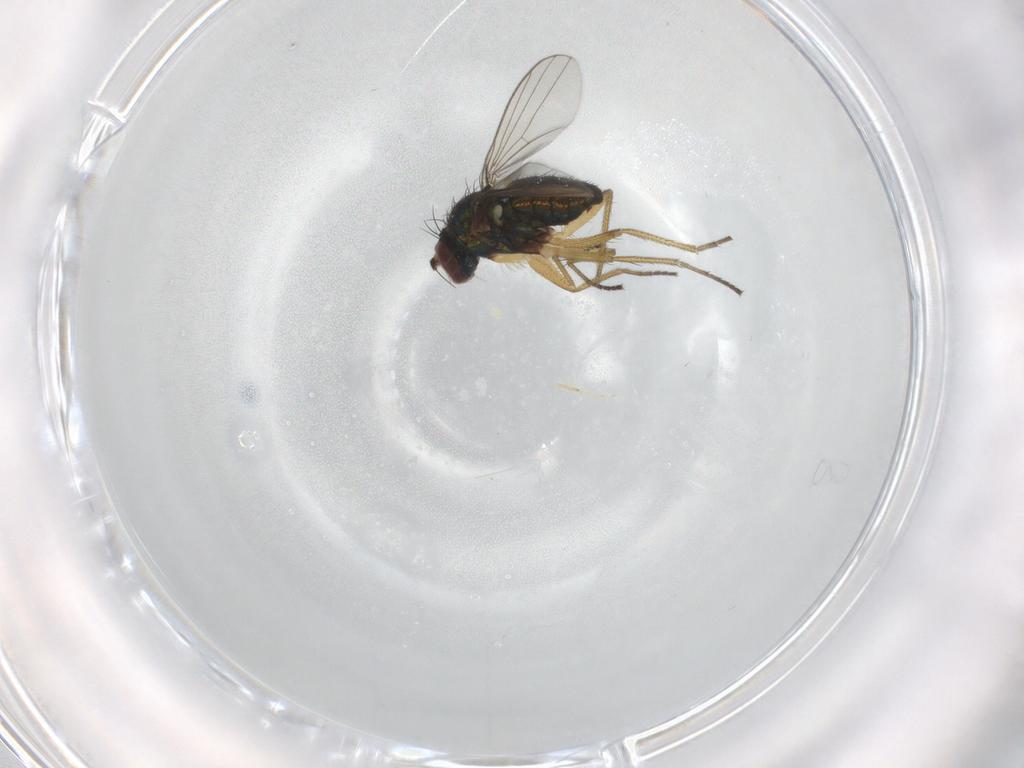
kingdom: Animalia
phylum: Arthropoda
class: Insecta
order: Diptera
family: Dolichopodidae
